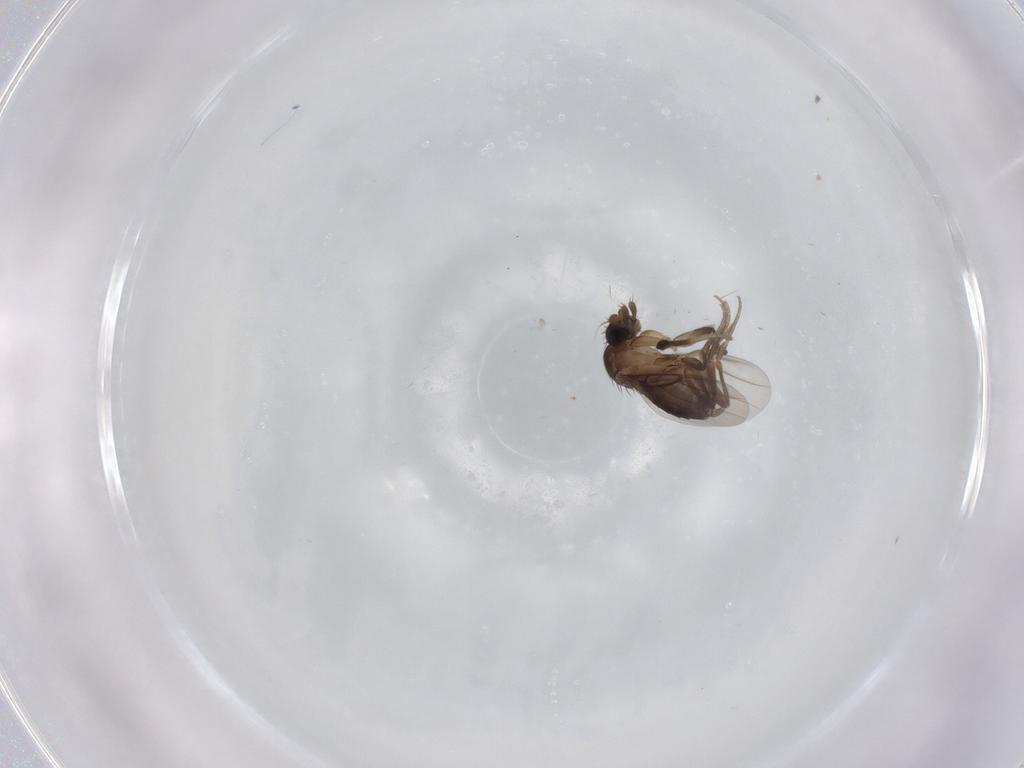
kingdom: Animalia
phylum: Arthropoda
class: Insecta
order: Diptera
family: Phoridae
